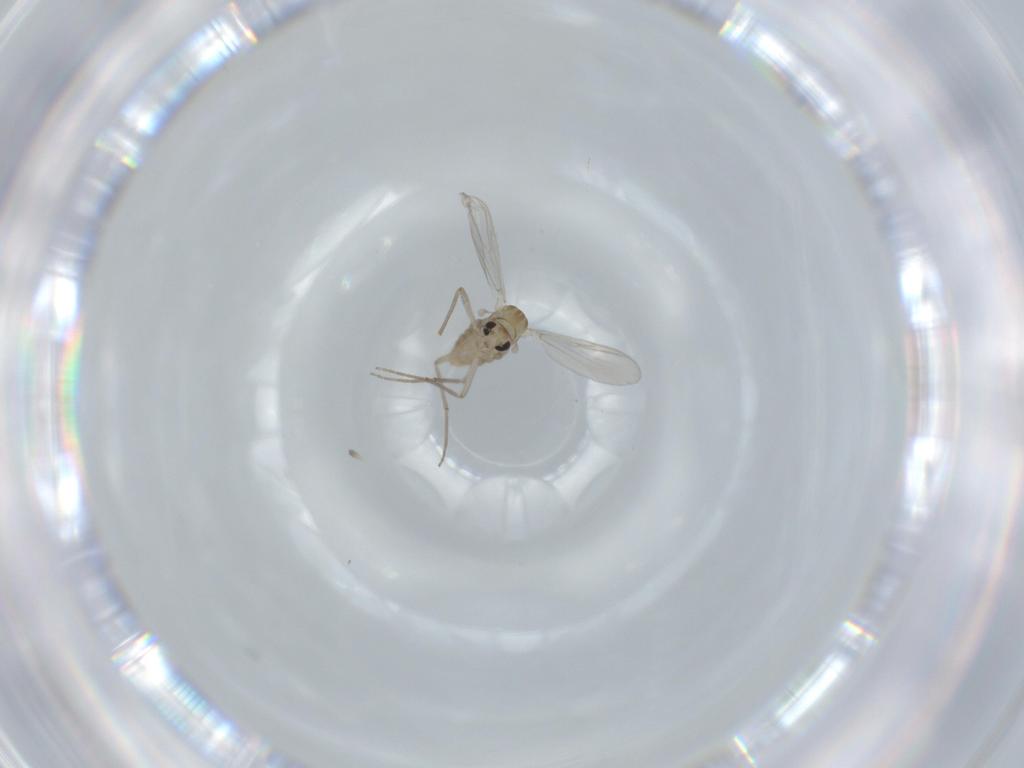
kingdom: Animalia
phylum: Arthropoda
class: Insecta
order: Diptera
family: Chironomidae
